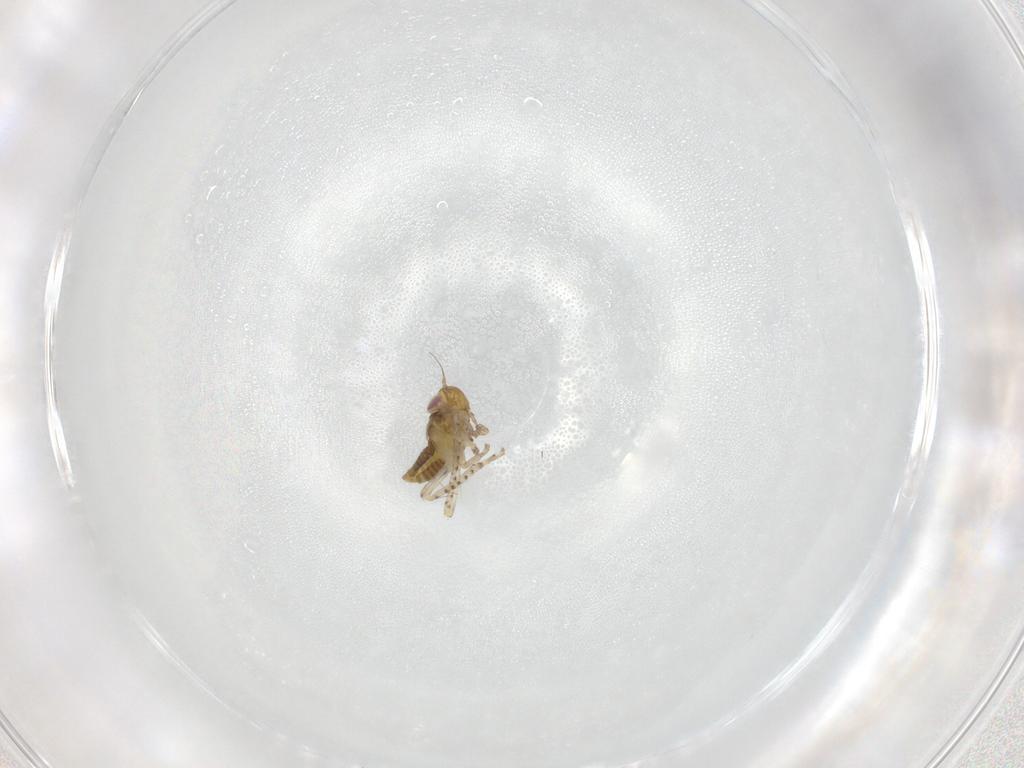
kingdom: Animalia
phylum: Arthropoda
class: Insecta
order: Hemiptera
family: Cicadellidae
